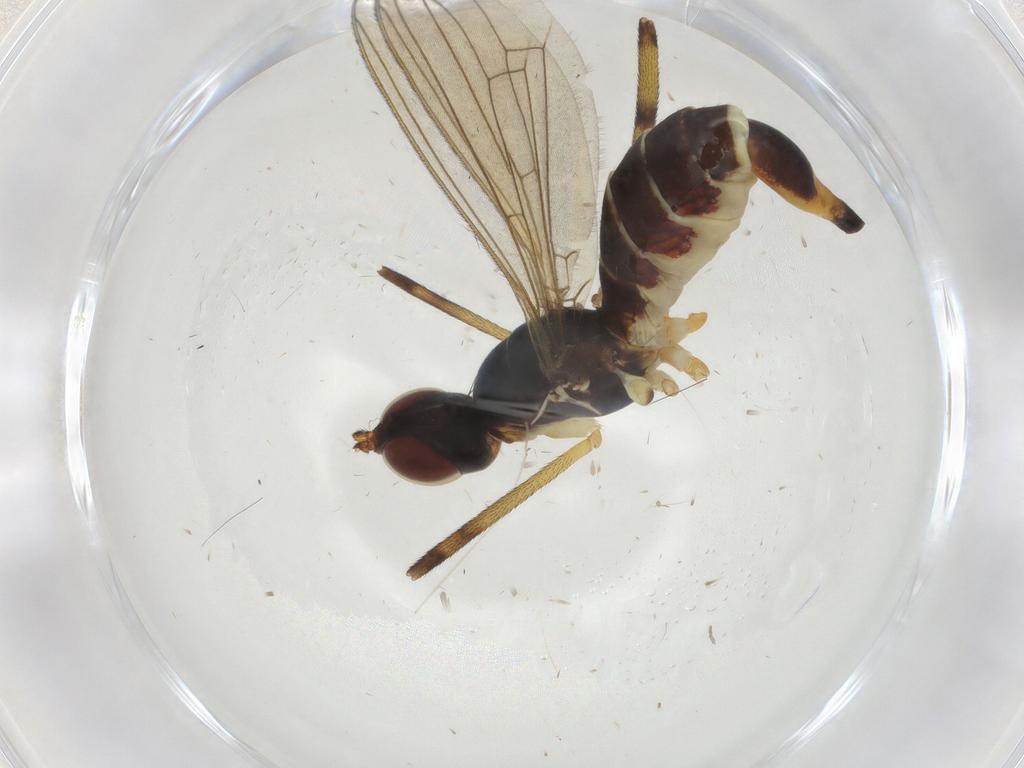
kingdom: Animalia
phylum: Arthropoda
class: Insecta
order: Diptera
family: Micropezidae
